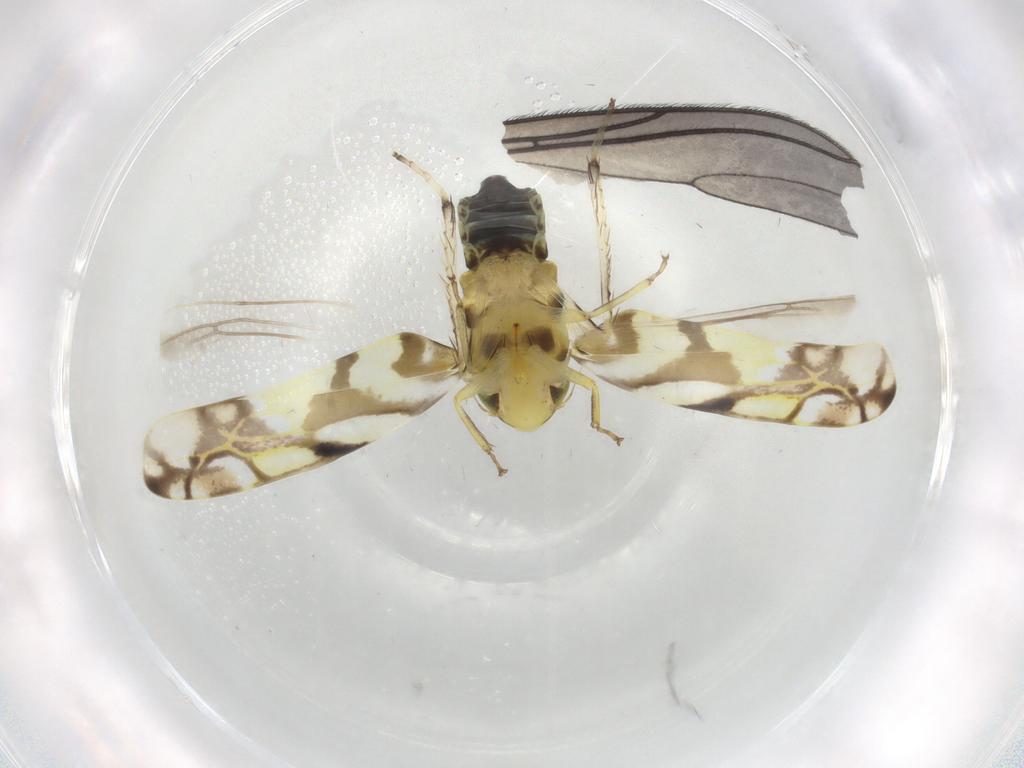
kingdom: Animalia
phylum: Arthropoda
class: Insecta
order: Hemiptera
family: Cicadellidae
